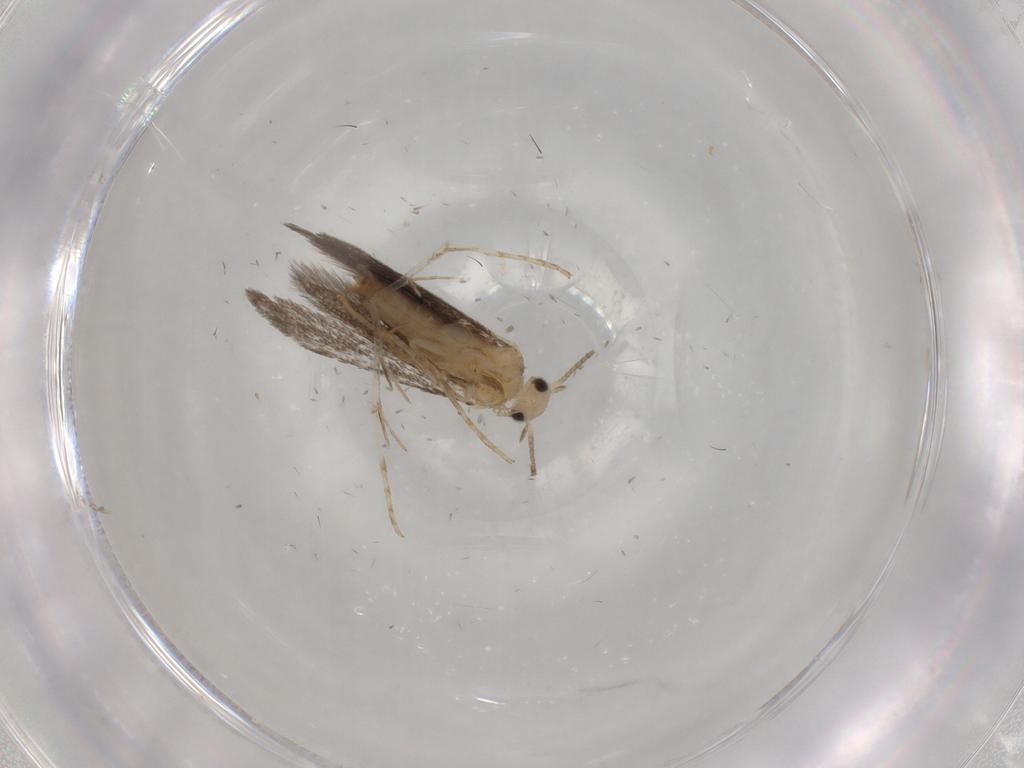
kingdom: Animalia
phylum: Arthropoda
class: Insecta
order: Lepidoptera
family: Schreckensteiniidae
